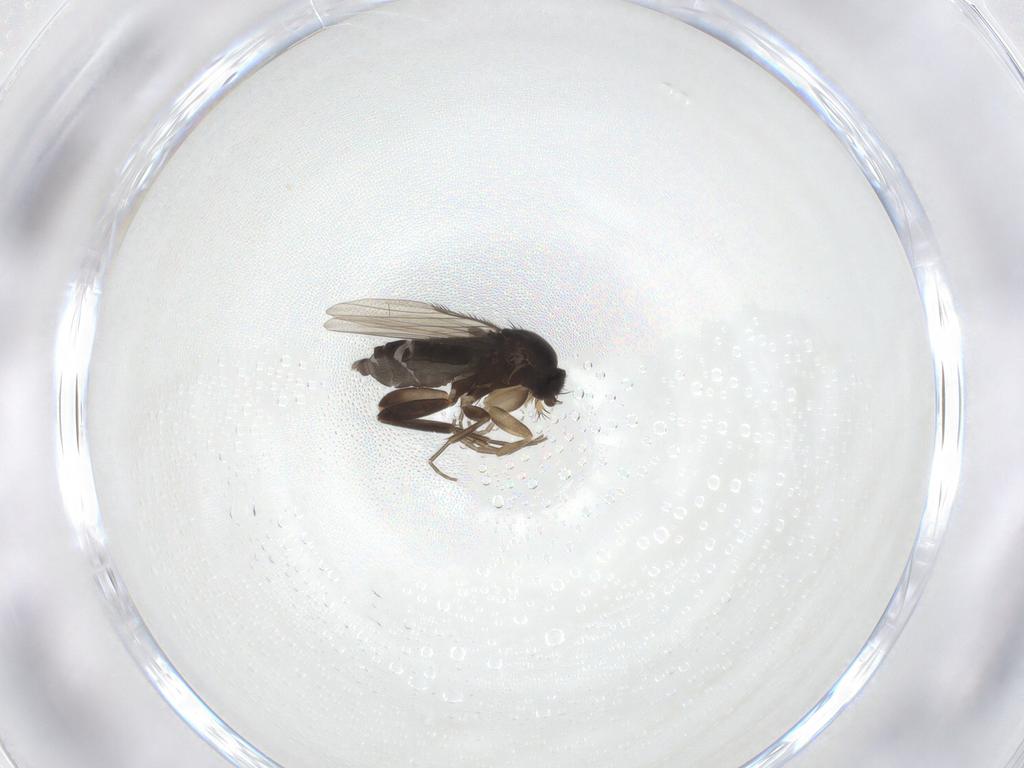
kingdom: Animalia
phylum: Arthropoda
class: Insecta
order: Diptera
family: Phoridae
